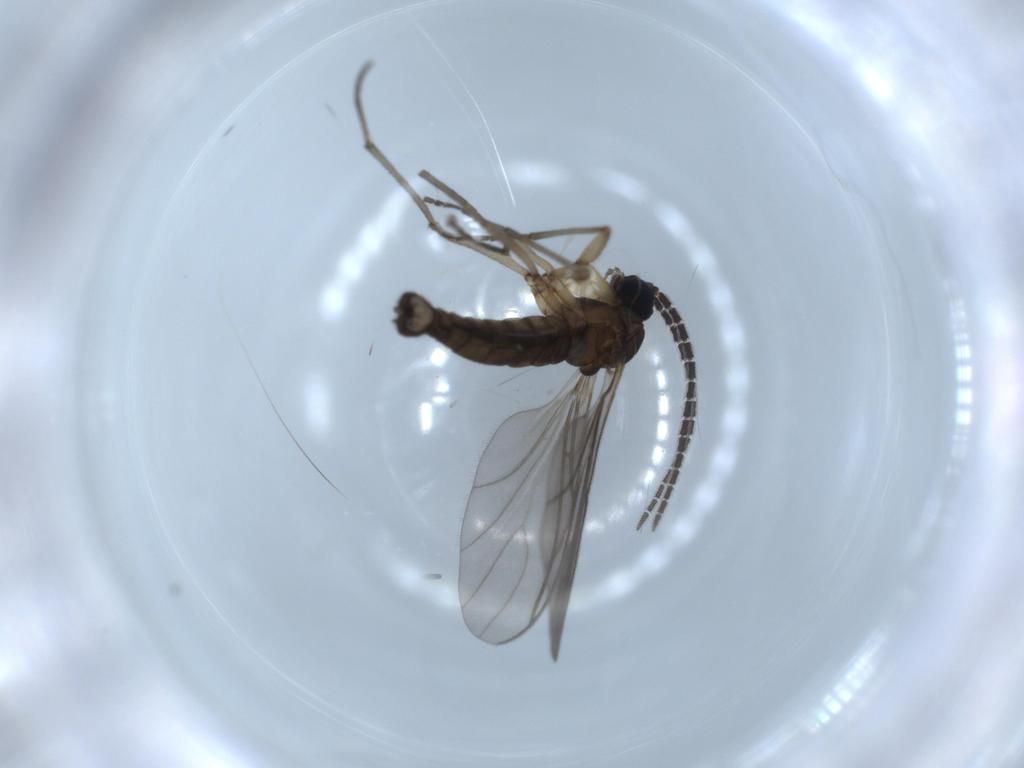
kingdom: Animalia
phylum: Arthropoda
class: Insecta
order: Diptera
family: Sciaridae
